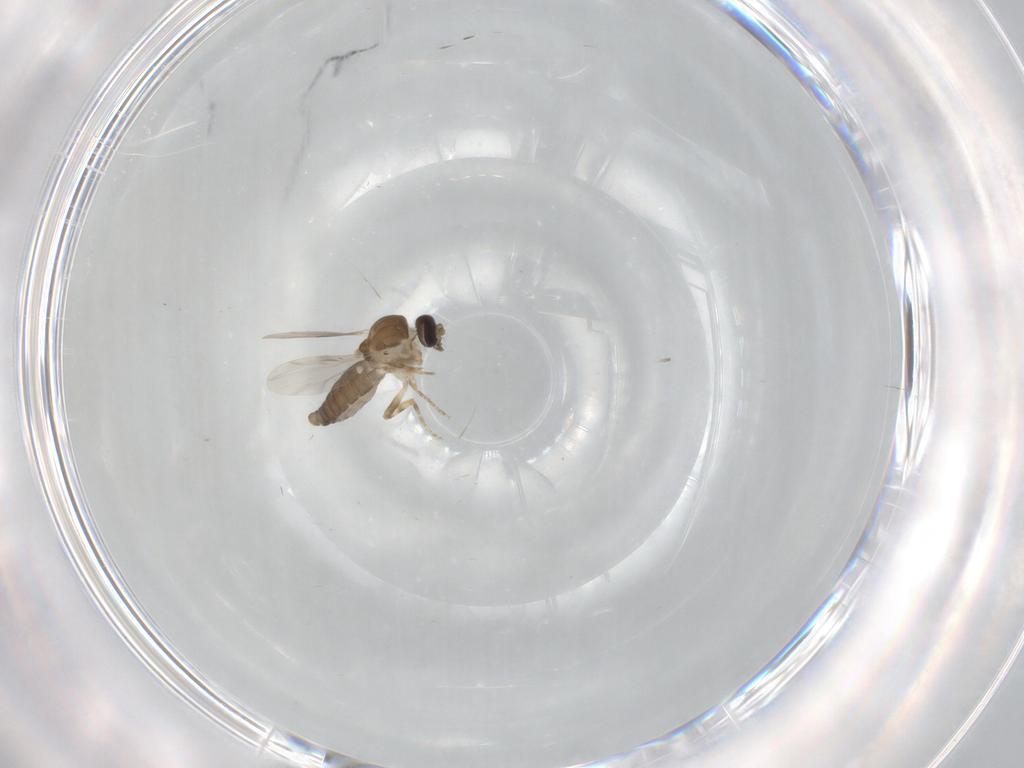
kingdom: Animalia
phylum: Arthropoda
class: Insecta
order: Diptera
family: Ceratopogonidae
